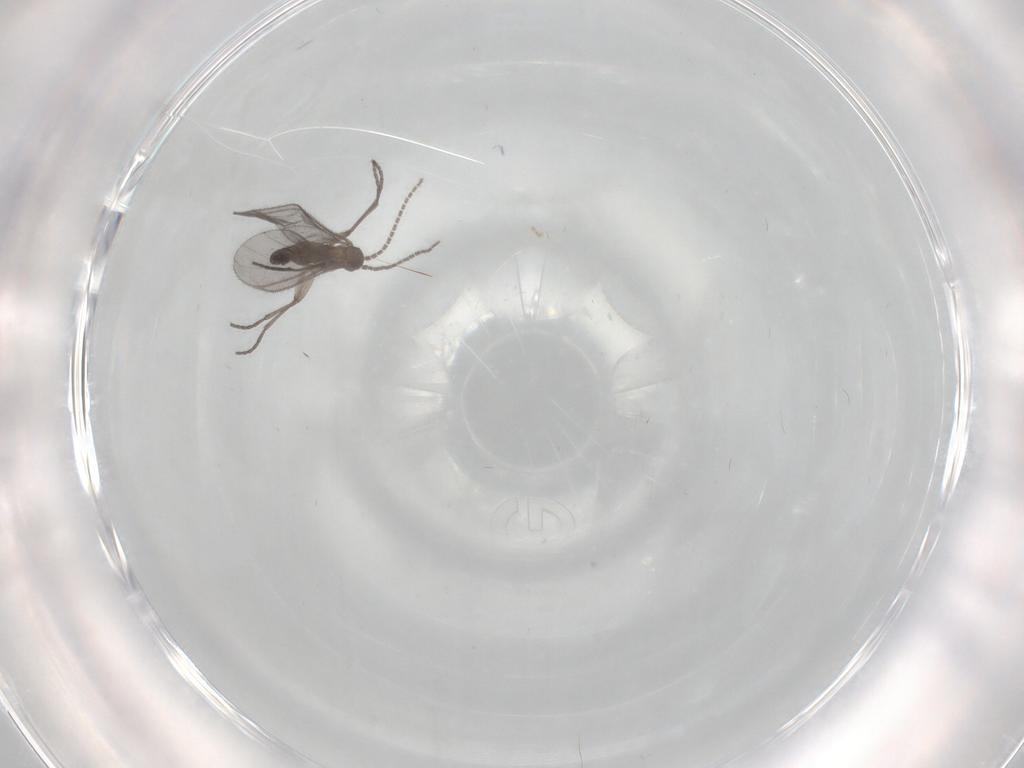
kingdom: Animalia
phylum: Arthropoda
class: Insecta
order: Diptera
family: Sciaridae
